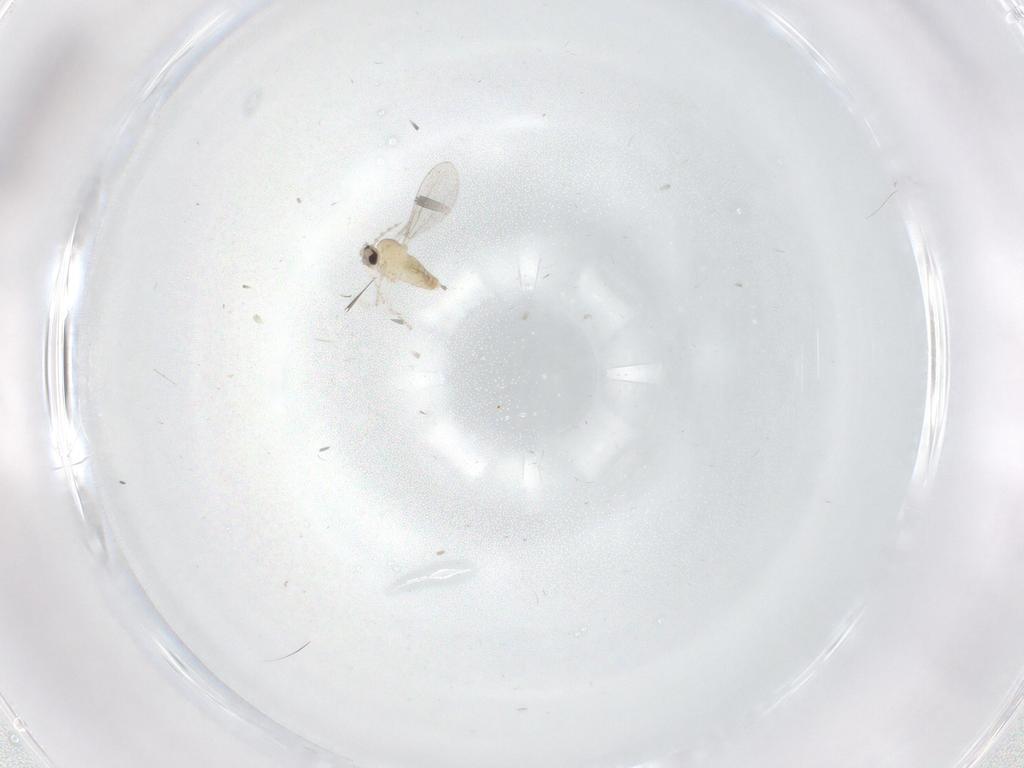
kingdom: Animalia
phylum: Arthropoda
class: Insecta
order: Diptera
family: Cecidomyiidae
